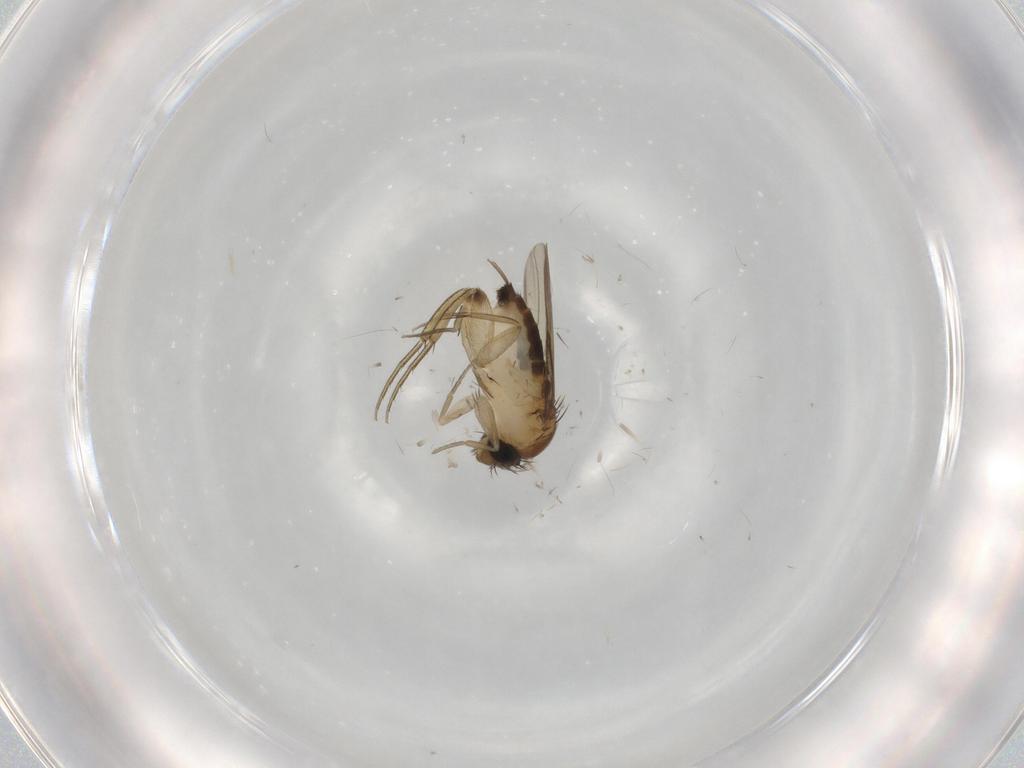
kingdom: Animalia
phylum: Arthropoda
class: Insecta
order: Diptera
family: Phoridae
